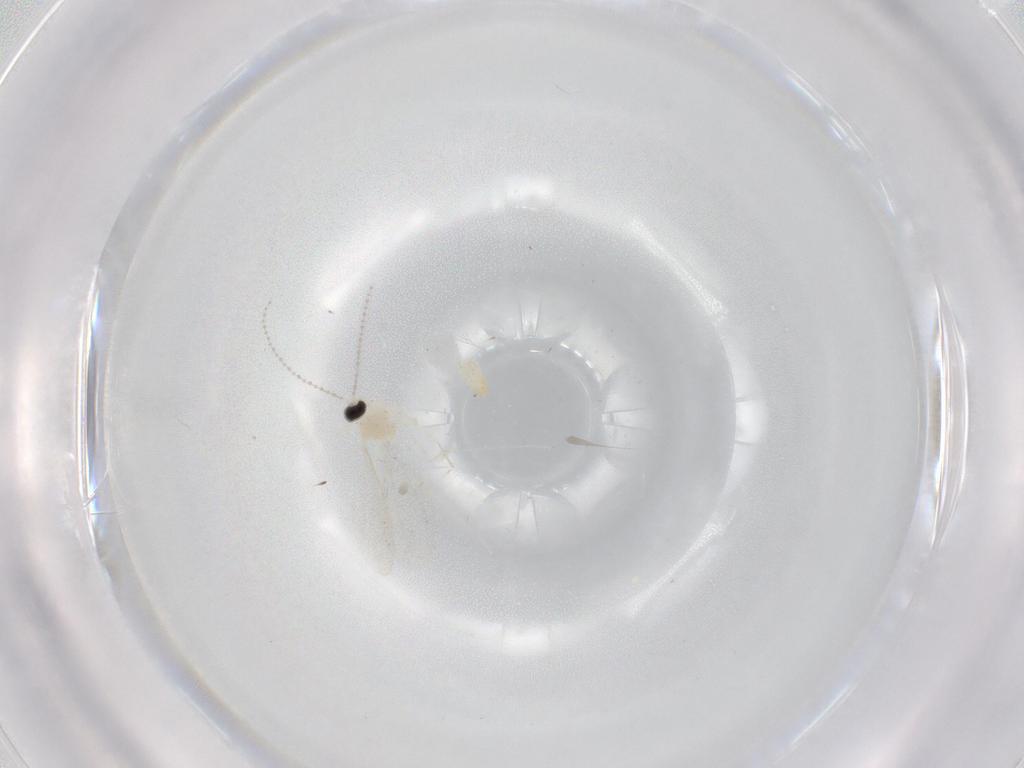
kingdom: Animalia
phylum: Arthropoda
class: Insecta
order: Diptera
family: Cecidomyiidae
